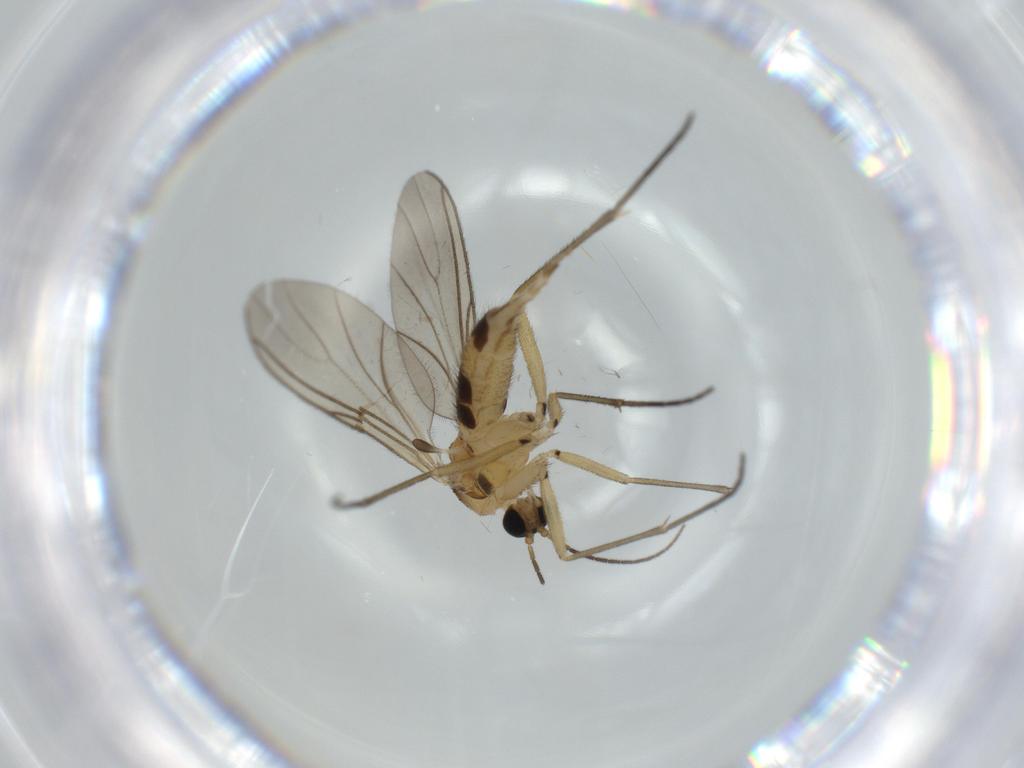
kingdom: Animalia
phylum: Arthropoda
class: Insecta
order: Diptera
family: Sciaridae
